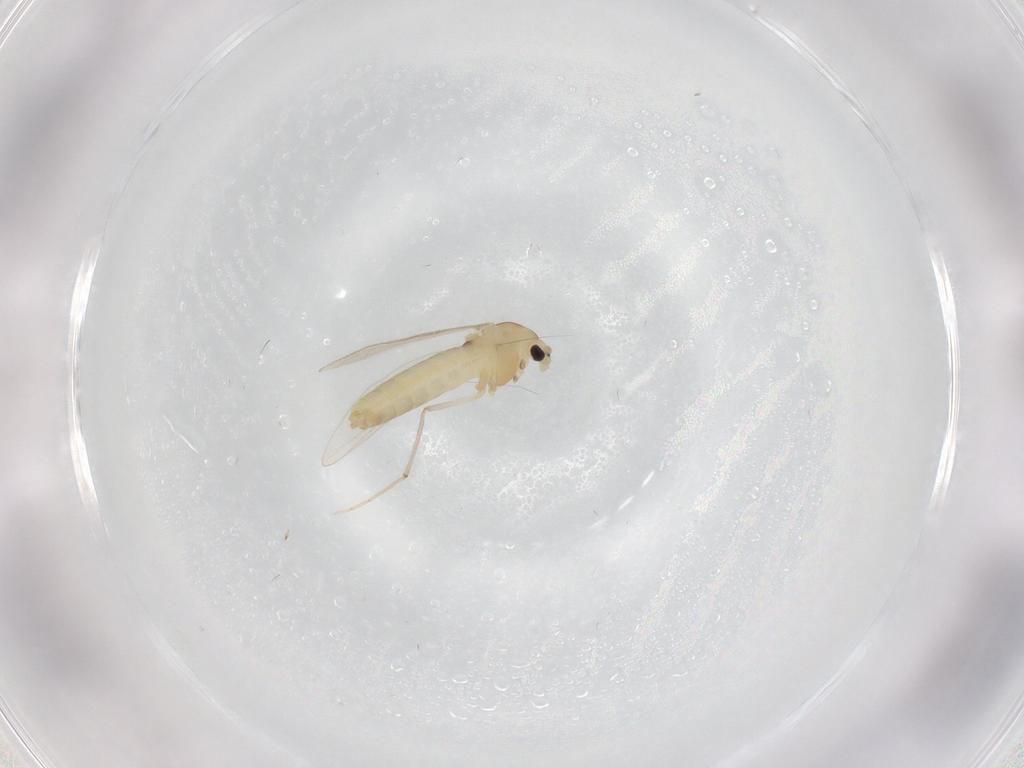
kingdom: Animalia
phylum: Arthropoda
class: Insecta
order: Diptera
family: Chironomidae
